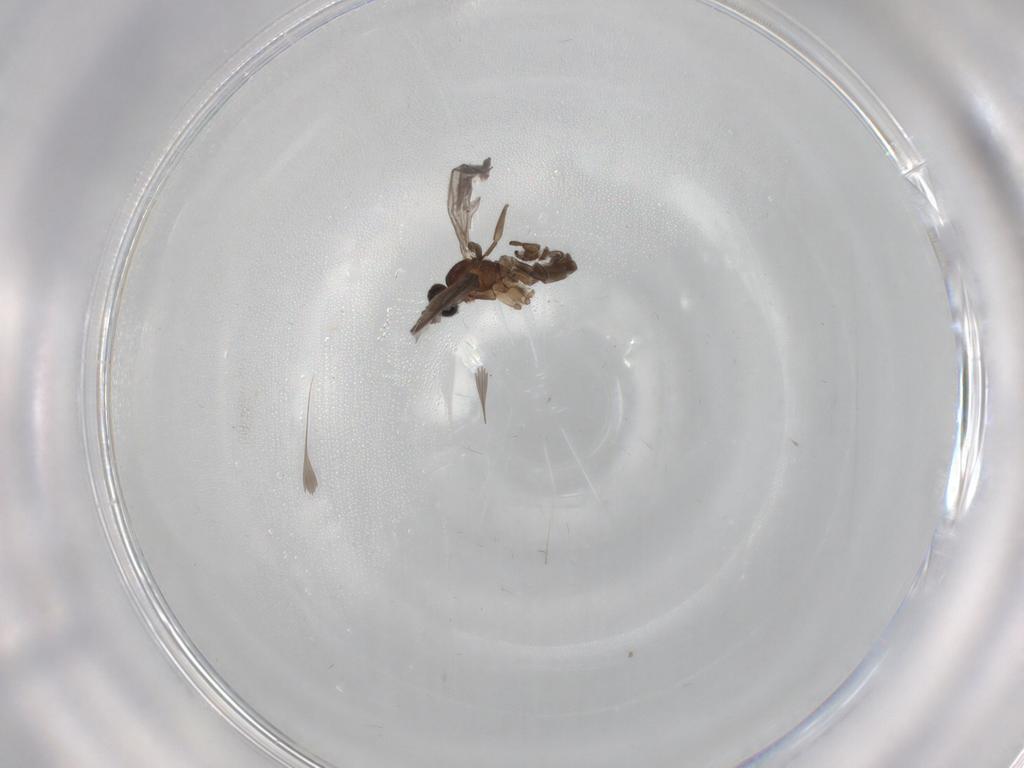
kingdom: Animalia
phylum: Arthropoda
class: Insecta
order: Diptera
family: Sciaridae
